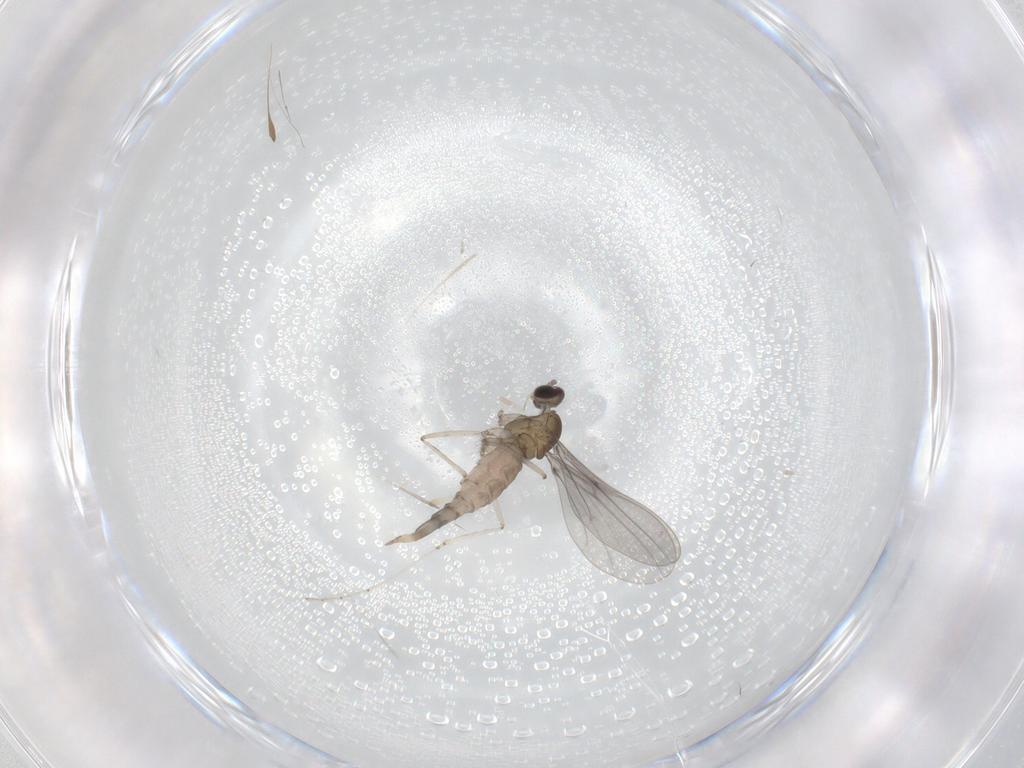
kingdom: Animalia
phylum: Arthropoda
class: Insecta
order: Diptera
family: Cecidomyiidae
